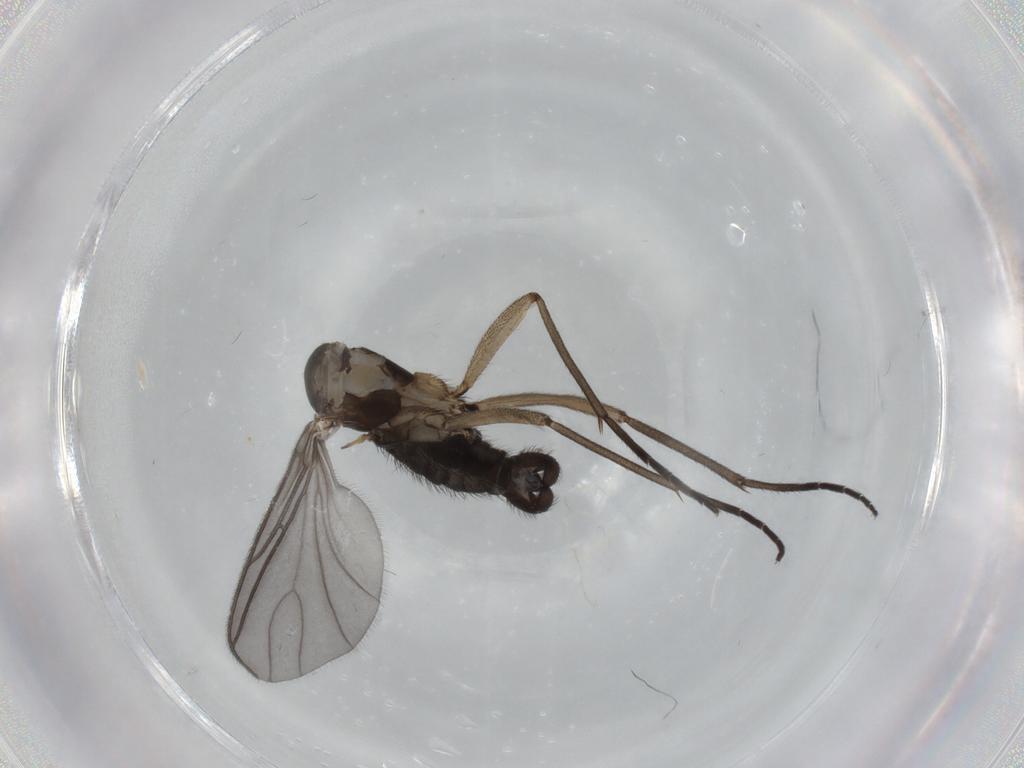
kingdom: Animalia
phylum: Arthropoda
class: Insecta
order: Diptera
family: Sciaridae
